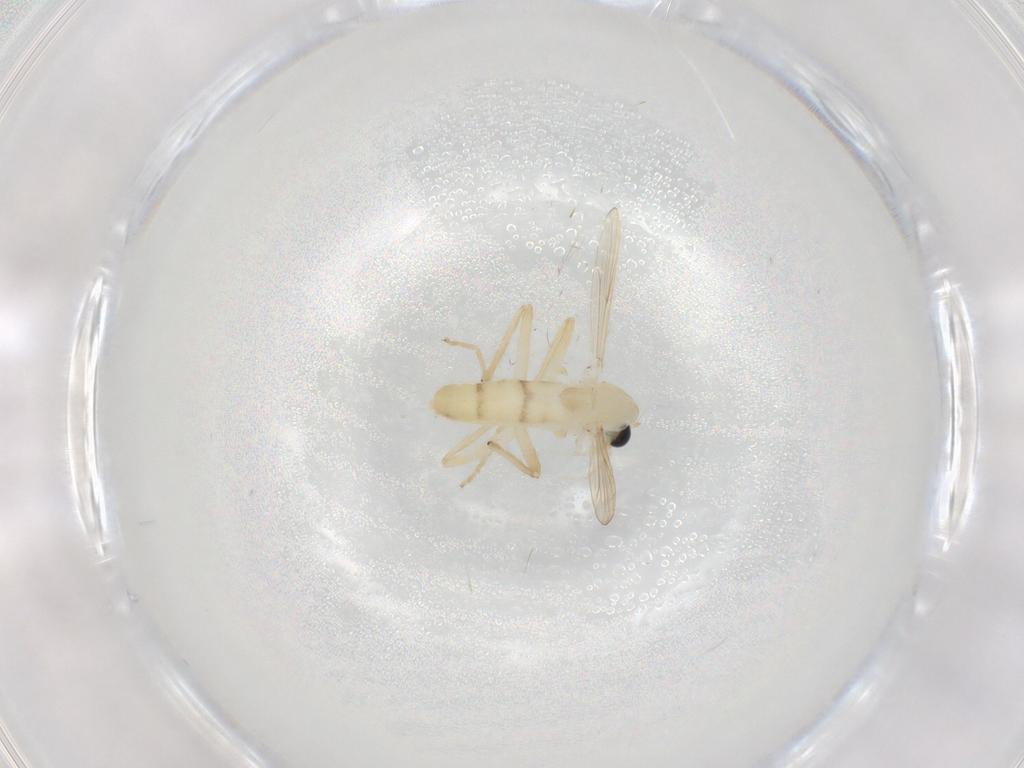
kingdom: Animalia
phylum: Arthropoda
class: Insecta
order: Diptera
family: Chironomidae
